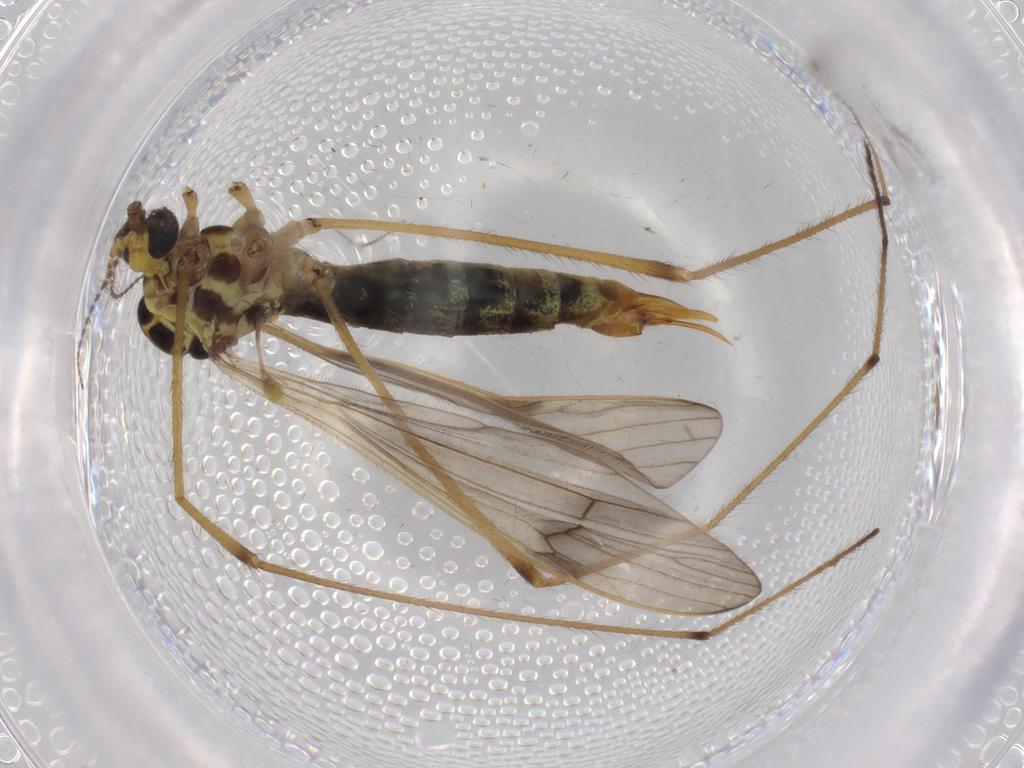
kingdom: Animalia
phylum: Arthropoda
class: Insecta
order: Diptera
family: Limoniidae
